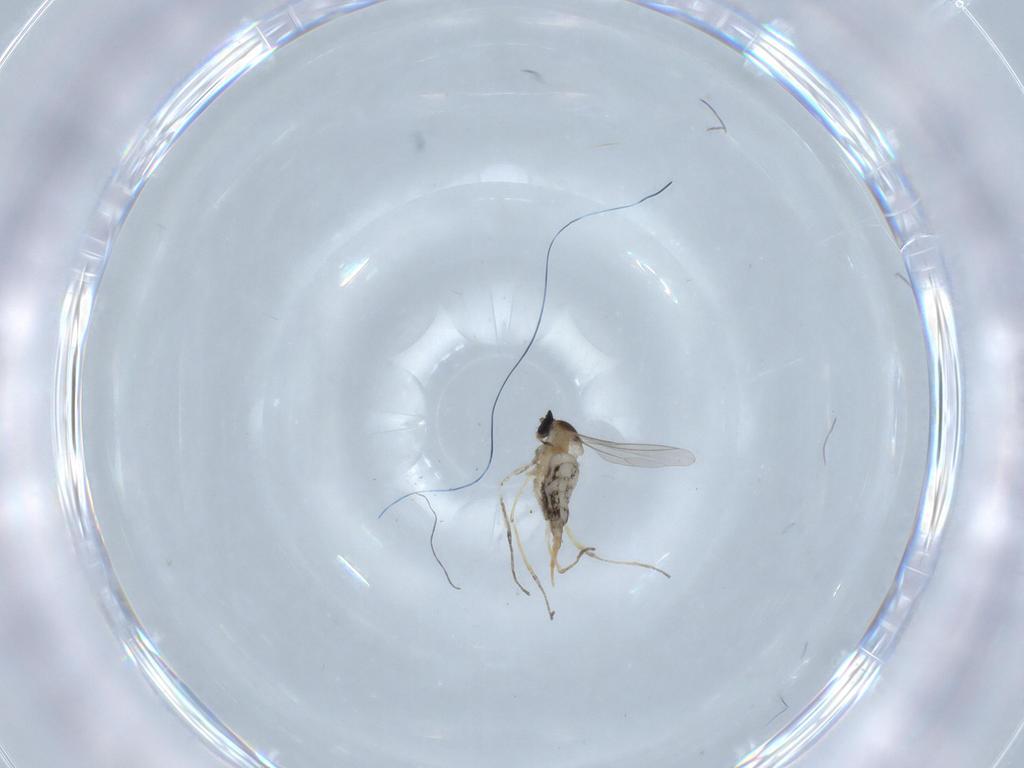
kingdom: Animalia
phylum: Arthropoda
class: Insecta
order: Diptera
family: Cecidomyiidae
